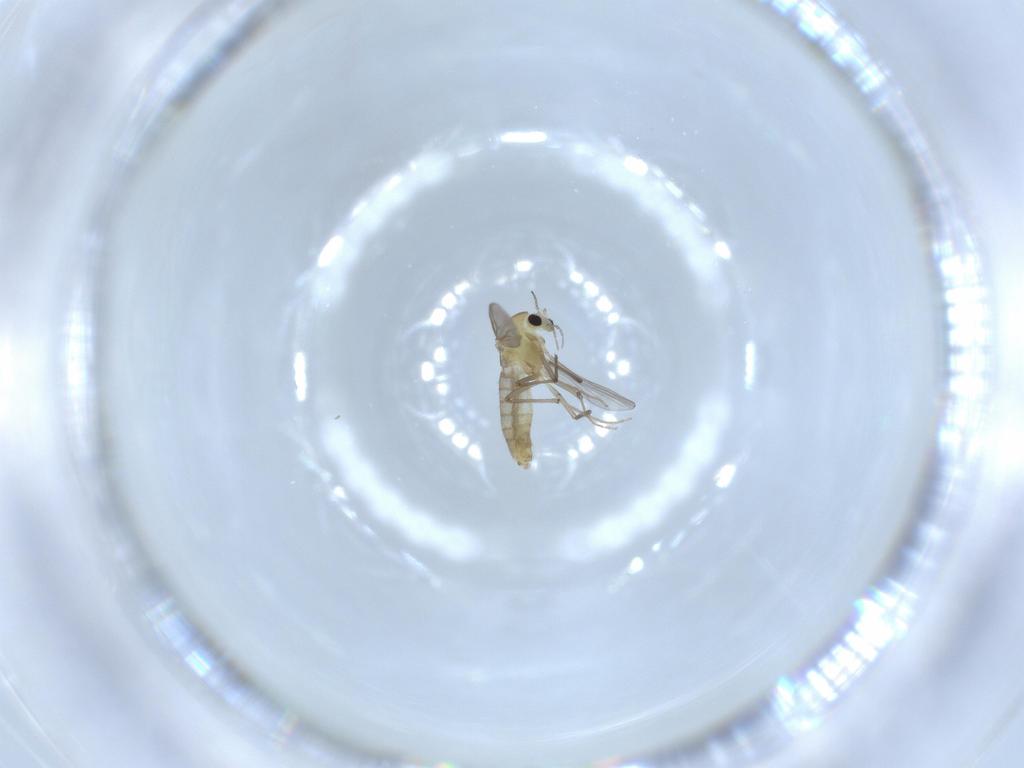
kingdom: Animalia
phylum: Arthropoda
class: Insecta
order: Diptera
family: Chironomidae
